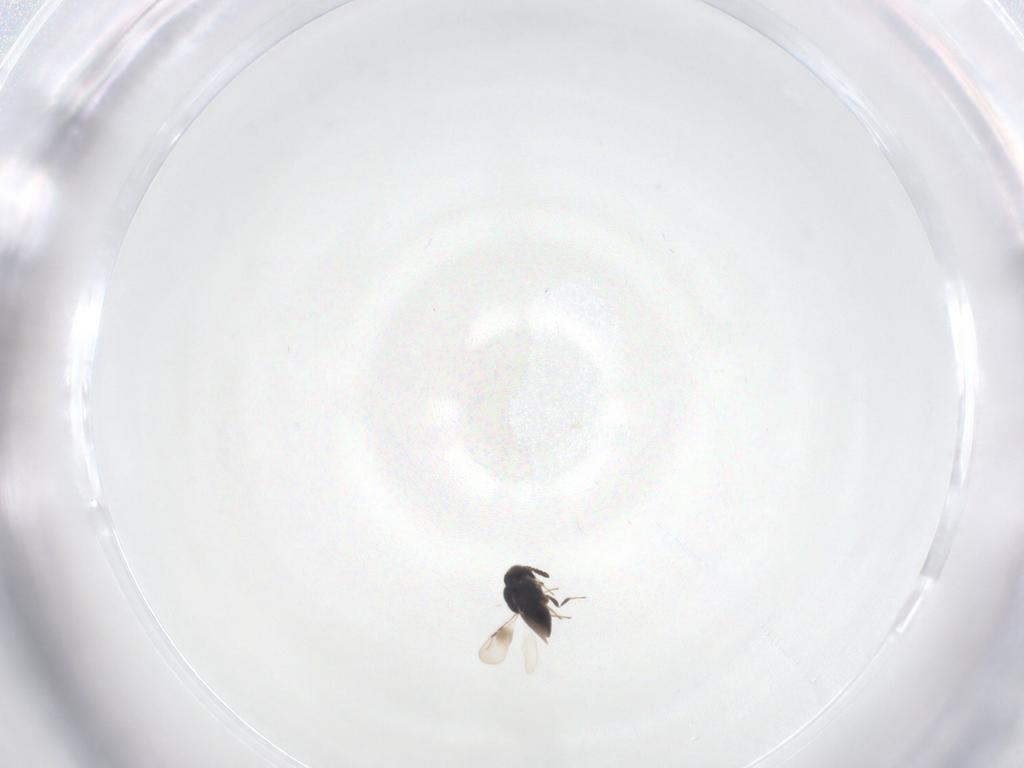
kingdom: Animalia
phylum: Arthropoda
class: Insecta
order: Hymenoptera
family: Ceraphronidae
